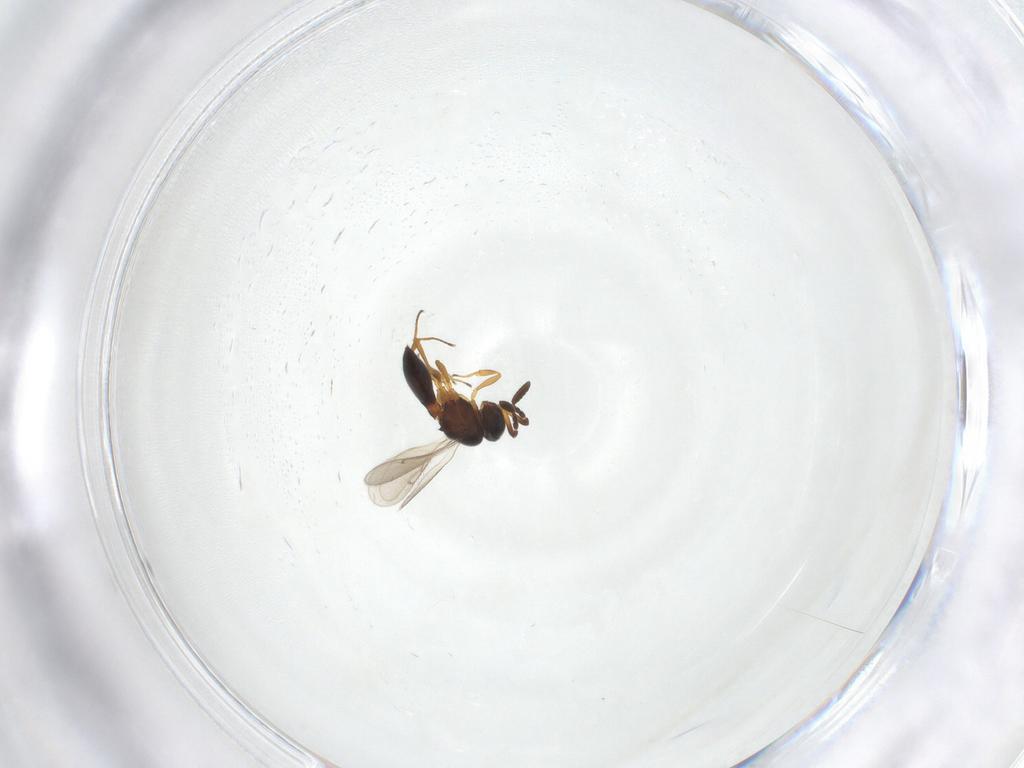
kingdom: Animalia
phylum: Arthropoda
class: Insecta
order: Hymenoptera
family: Scelionidae
